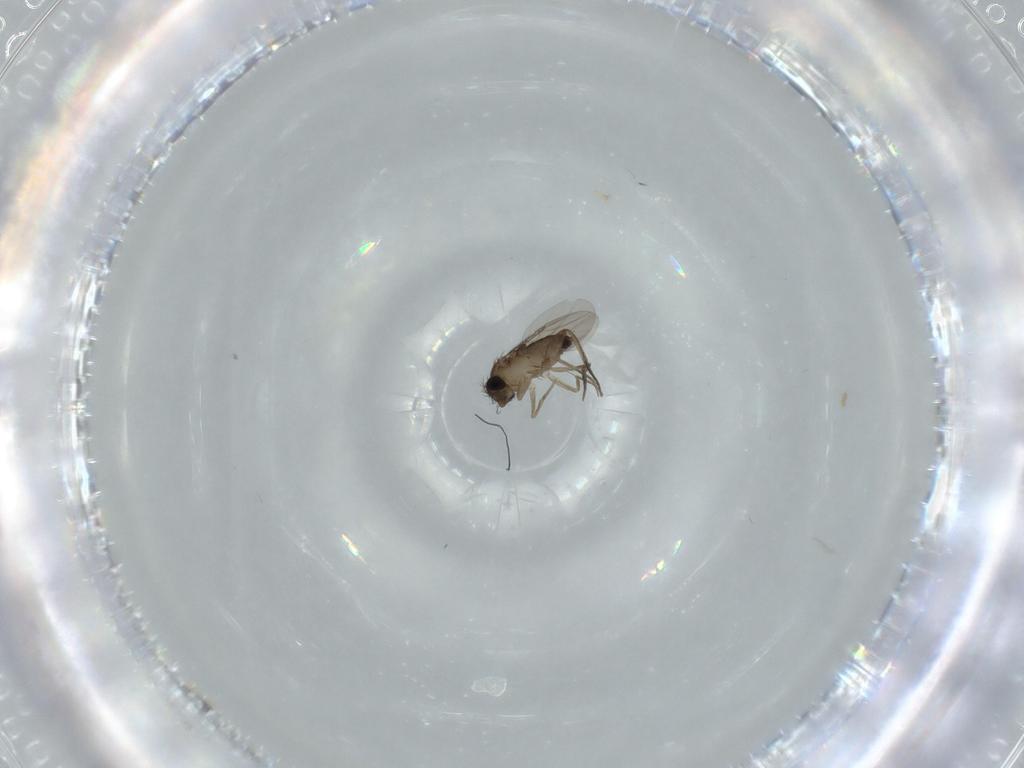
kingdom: Animalia
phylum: Arthropoda
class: Insecta
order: Diptera
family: Phoridae
